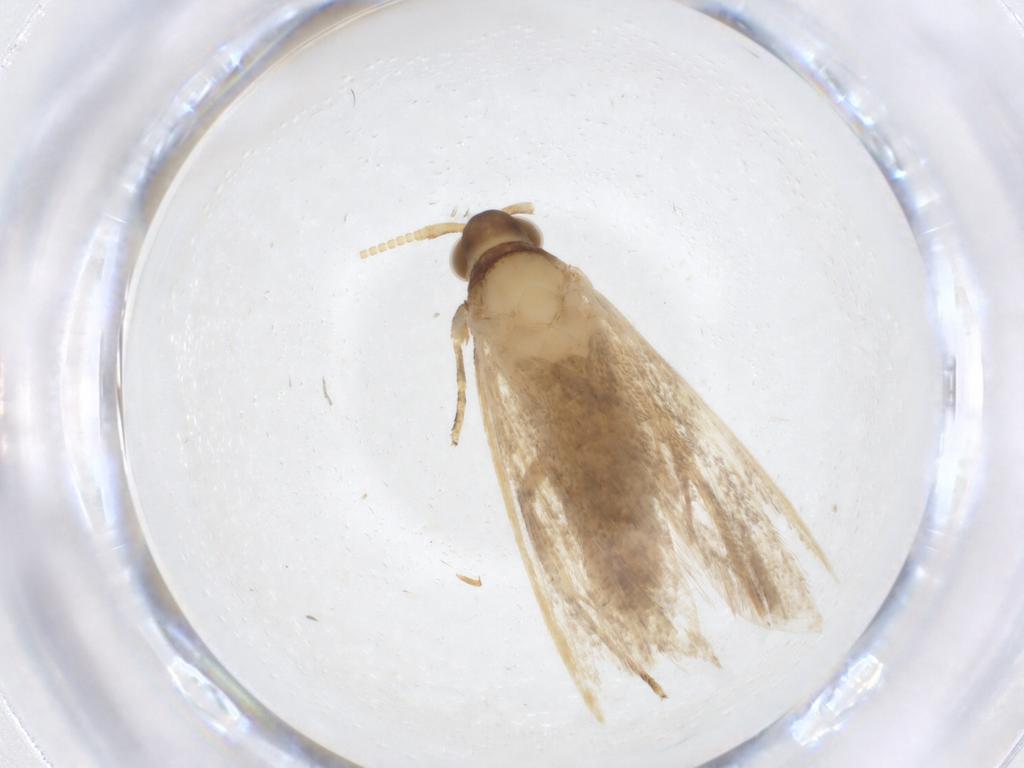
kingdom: Animalia
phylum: Arthropoda
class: Insecta
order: Lepidoptera
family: Lecithoceridae
